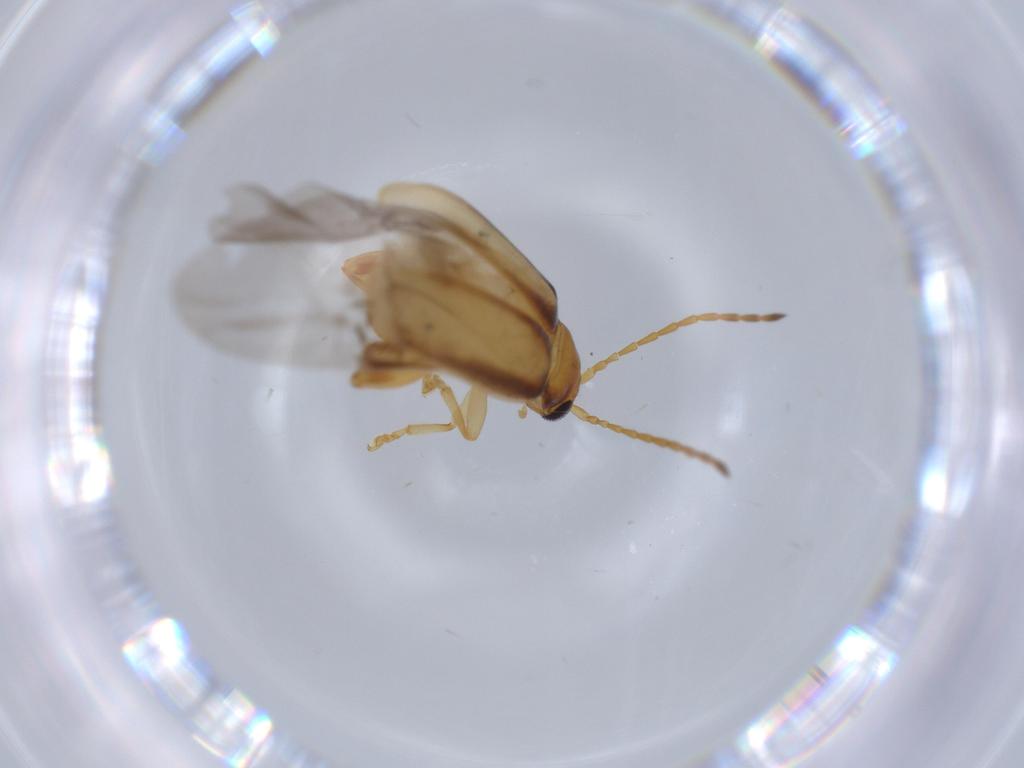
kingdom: Animalia
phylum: Arthropoda
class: Insecta
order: Coleoptera
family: Chrysomelidae
